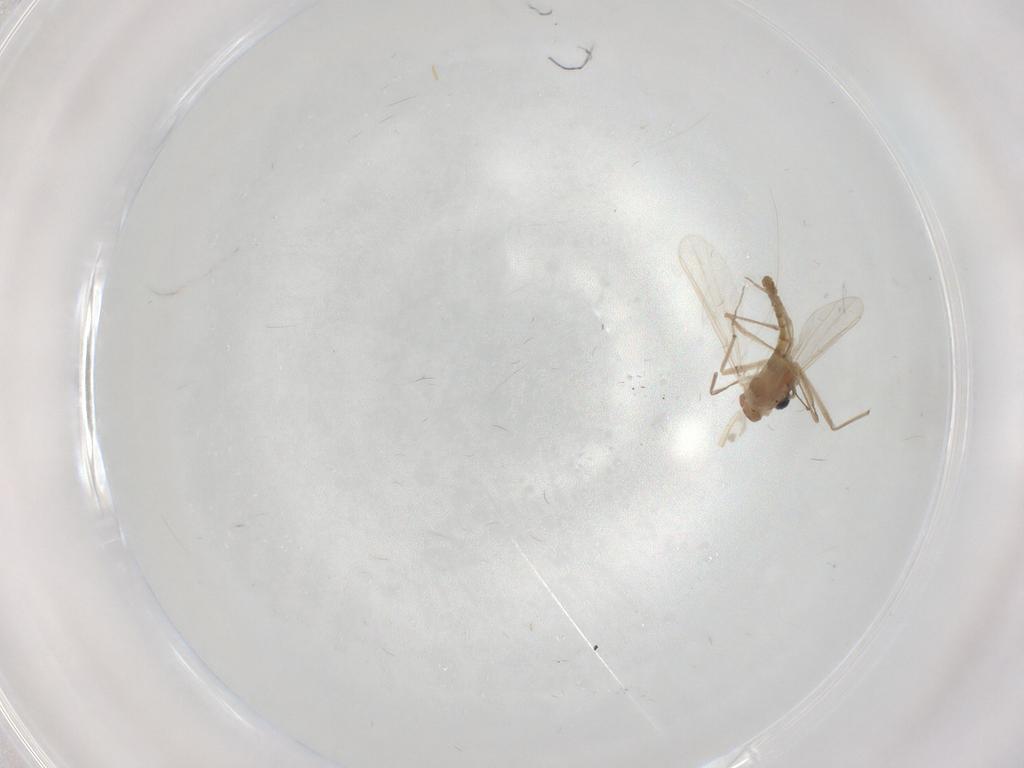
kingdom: Animalia
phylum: Arthropoda
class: Insecta
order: Diptera
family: Chironomidae
